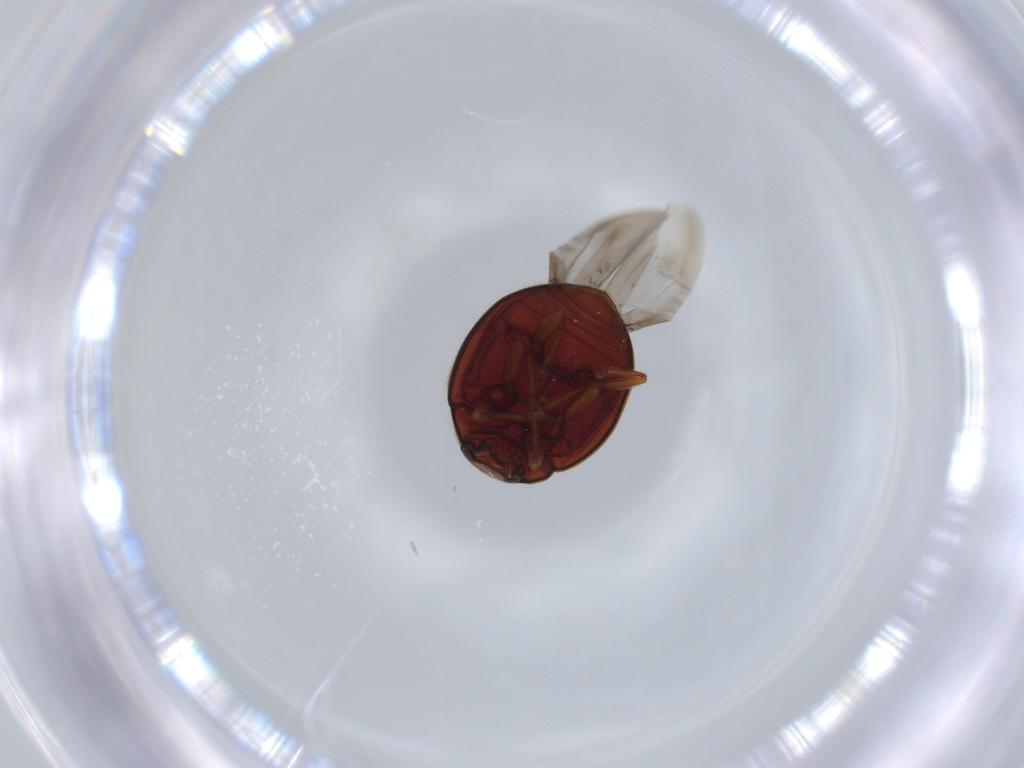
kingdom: Animalia
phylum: Arthropoda
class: Insecta
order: Coleoptera
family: Coccinellidae
